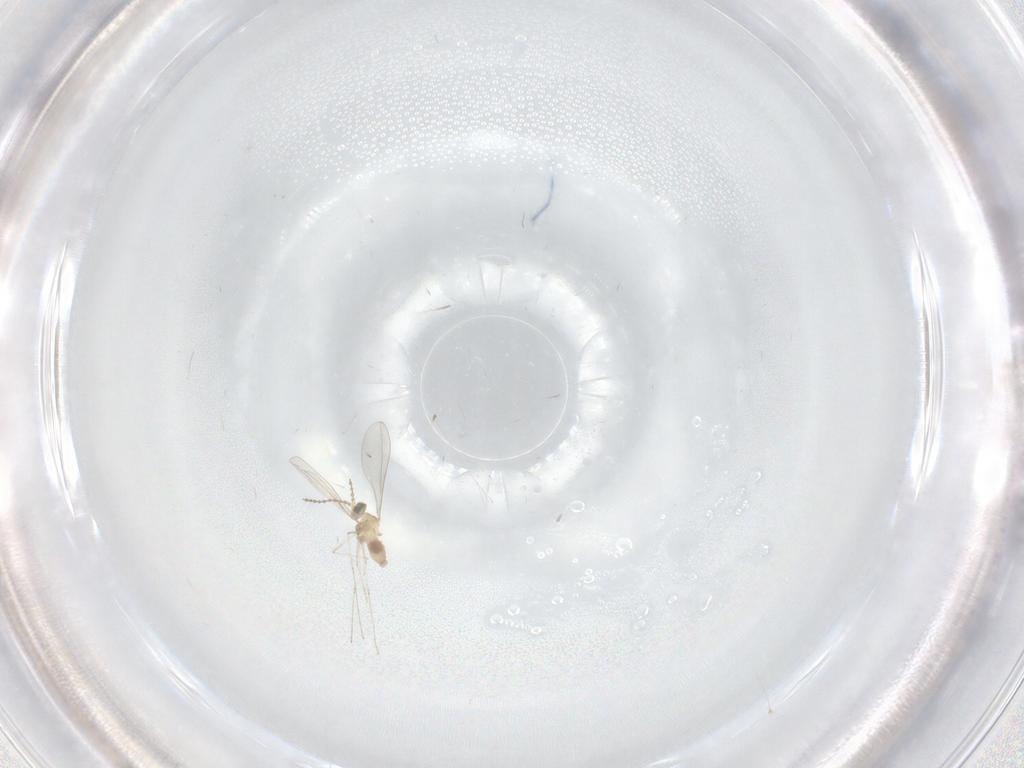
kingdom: Animalia
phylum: Arthropoda
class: Insecta
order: Diptera
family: Cecidomyiidae
